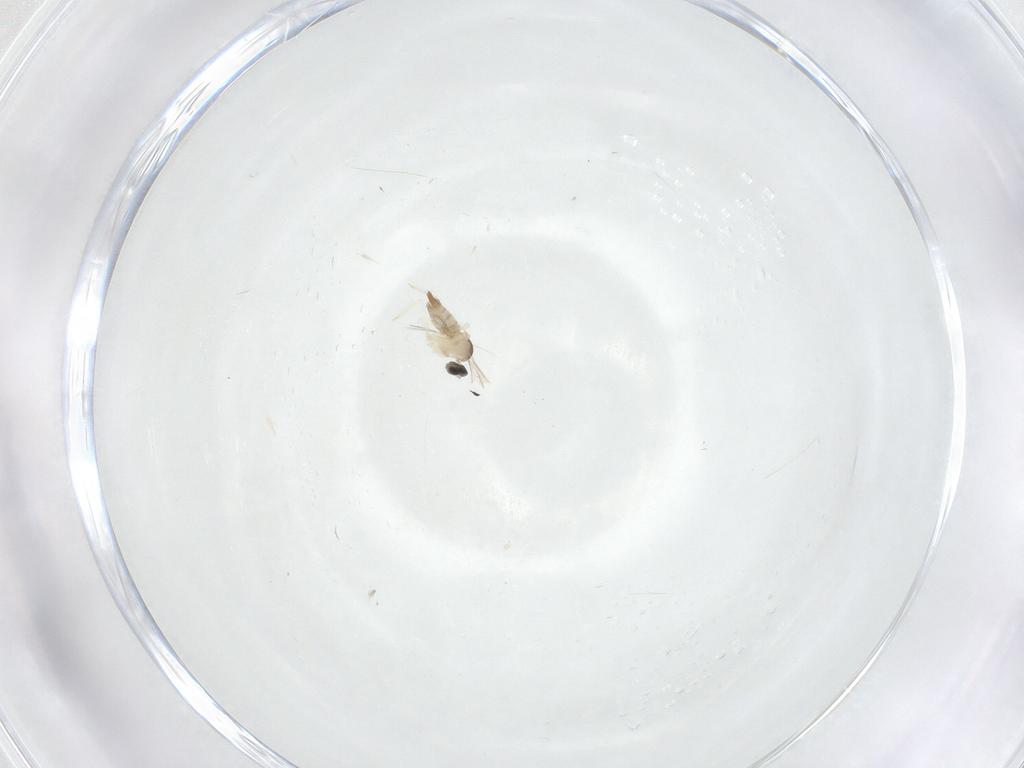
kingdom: Animalia
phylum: Arthropoda
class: Insecta
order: Diptera
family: Cecidomyiidae
